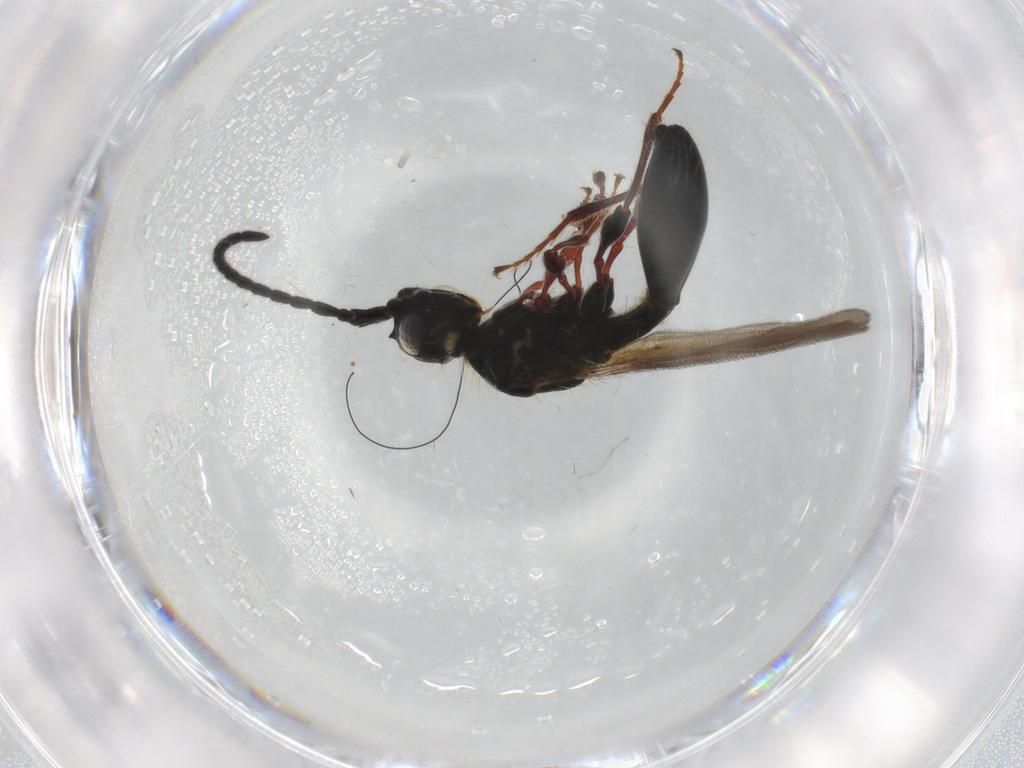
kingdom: Animalia
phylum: Arthropoda
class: Insecta
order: Hymenoptera
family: Diapriidae
